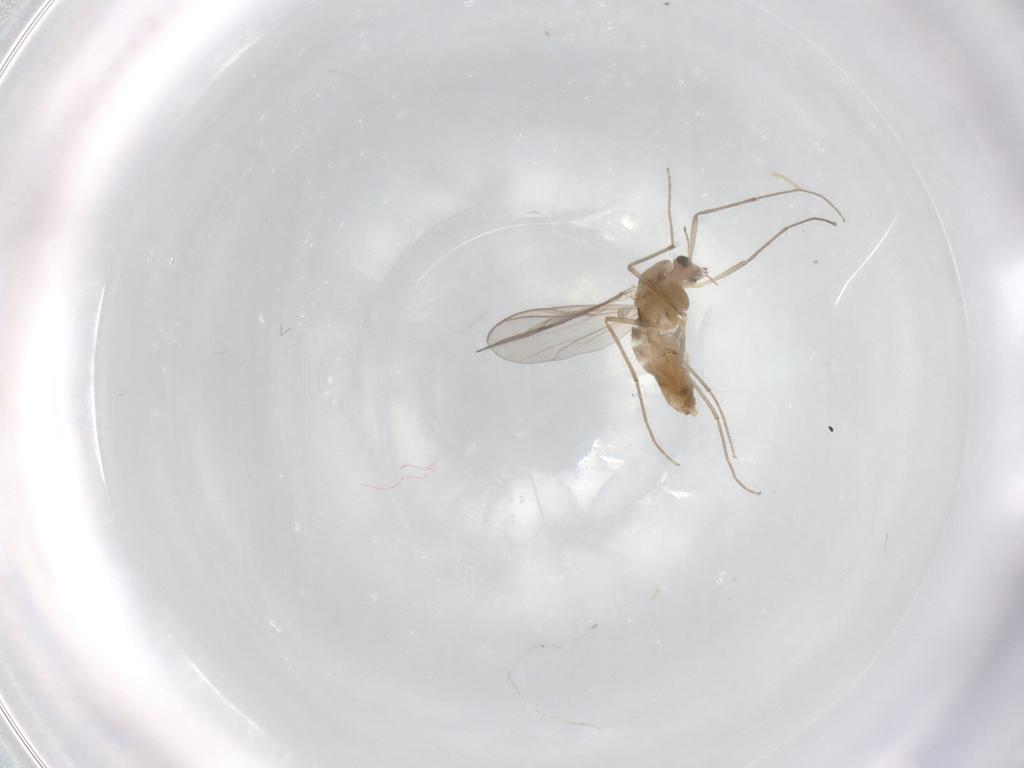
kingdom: Animalia
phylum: Arthropoda
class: Insecta
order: Diptera
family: Chironomidae
